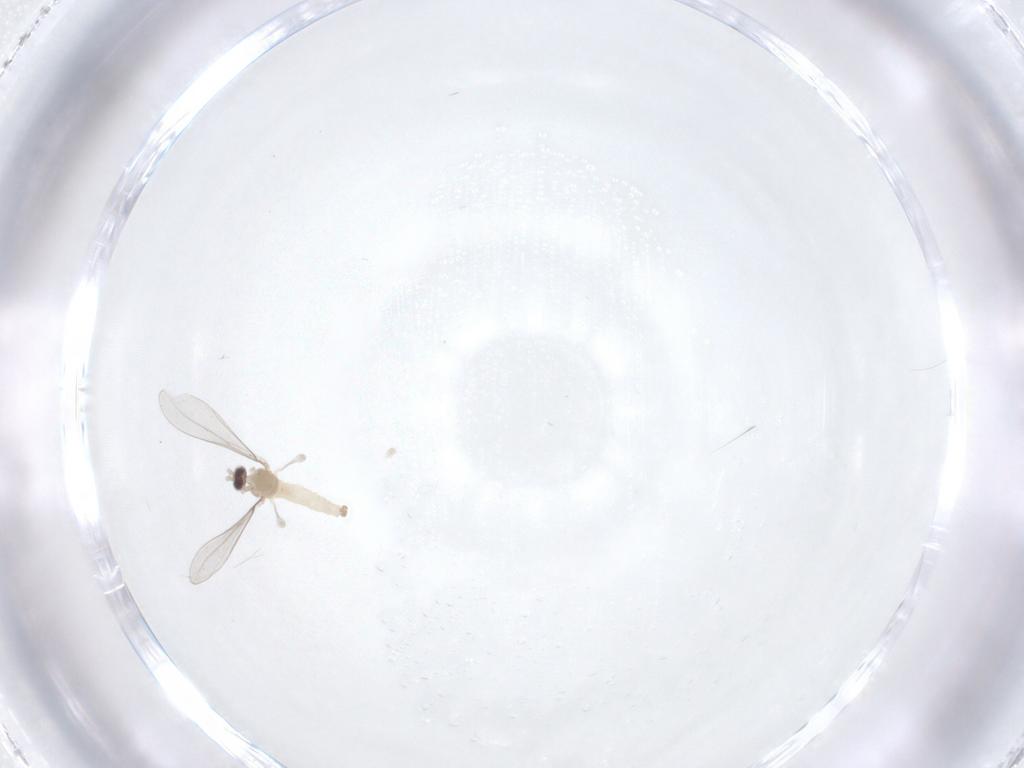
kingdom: Animalia
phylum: Arthropoda
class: Insecta
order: Diptera
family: Cecidomyiidae
